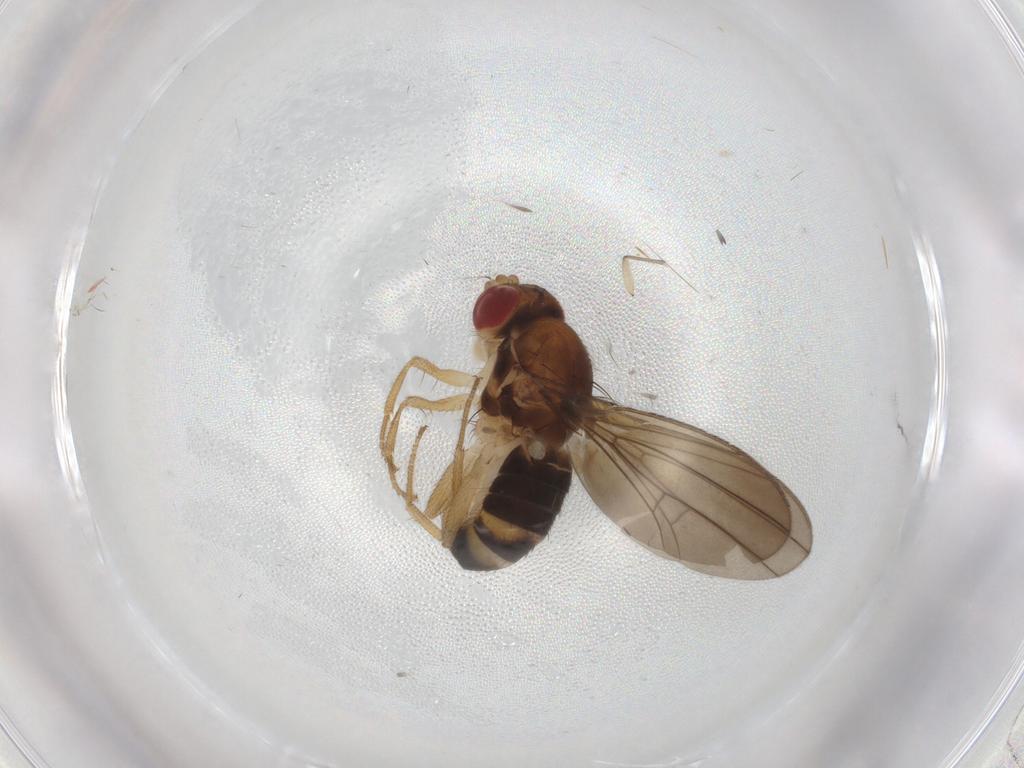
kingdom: Animalia
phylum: Arthropoda
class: Insecta
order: Diptera
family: Drosophilidae
